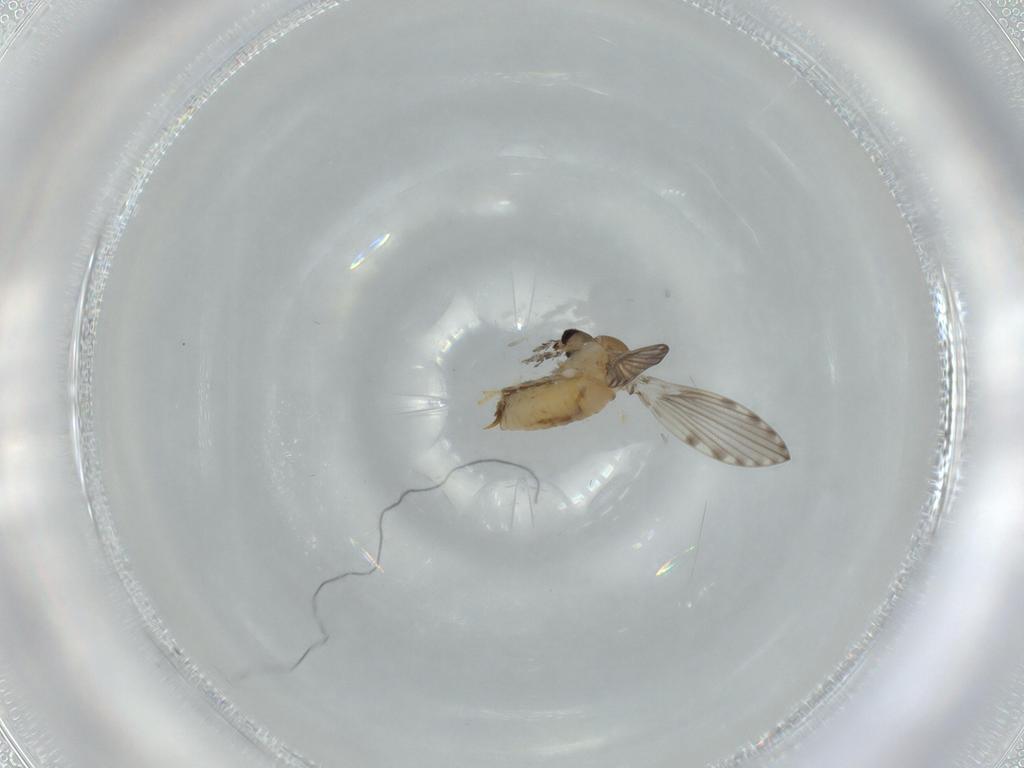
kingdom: Animalia
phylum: Arthropoda
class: Insecta
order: Diptera
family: Psychodidae
